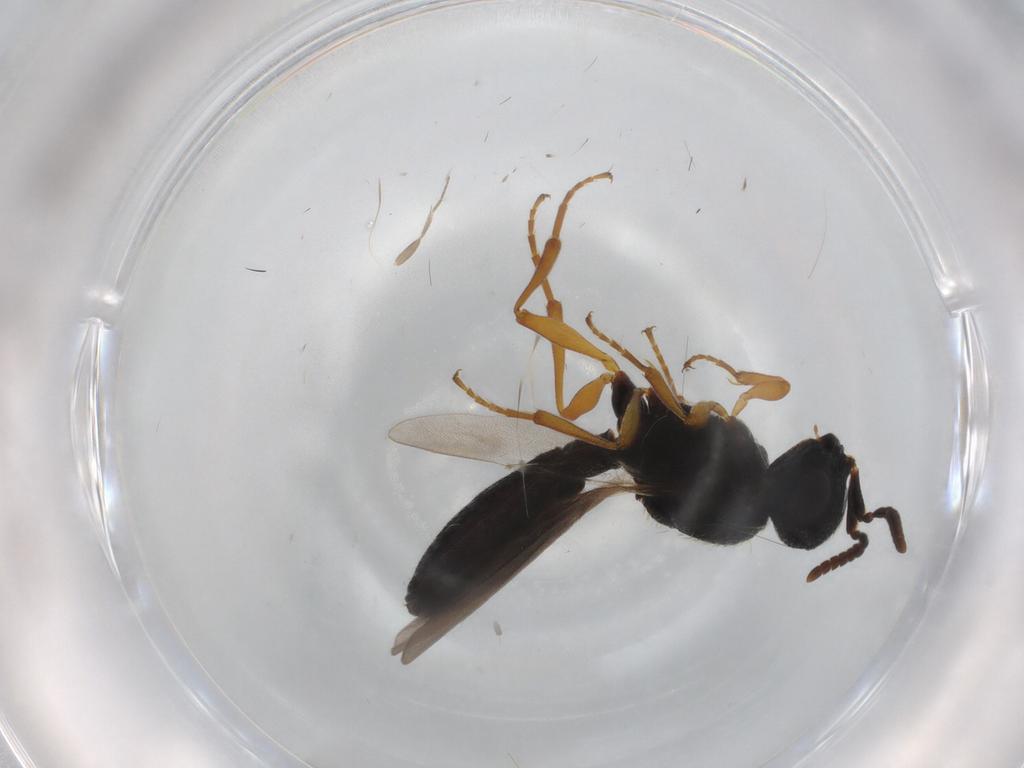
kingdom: Animalia
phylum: Arthropoda
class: Insecta
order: Hymenoptera
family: Scelionidae
